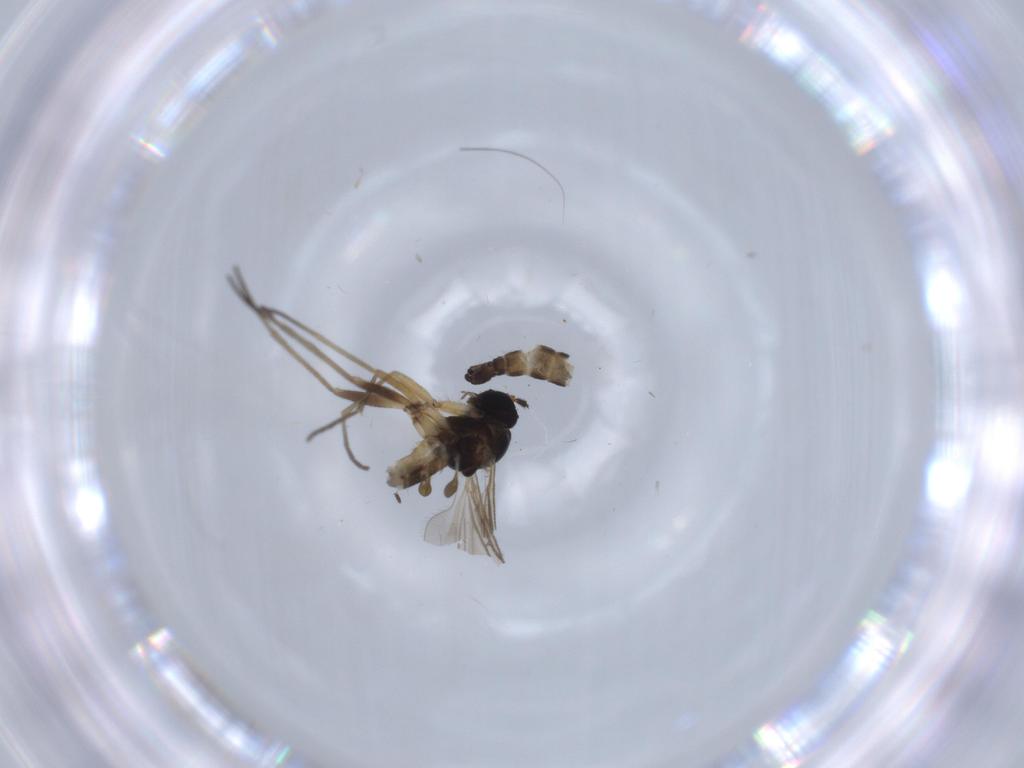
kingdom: Animalia
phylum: Arthropoda
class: Insecta
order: Diptera
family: Sciaridae
